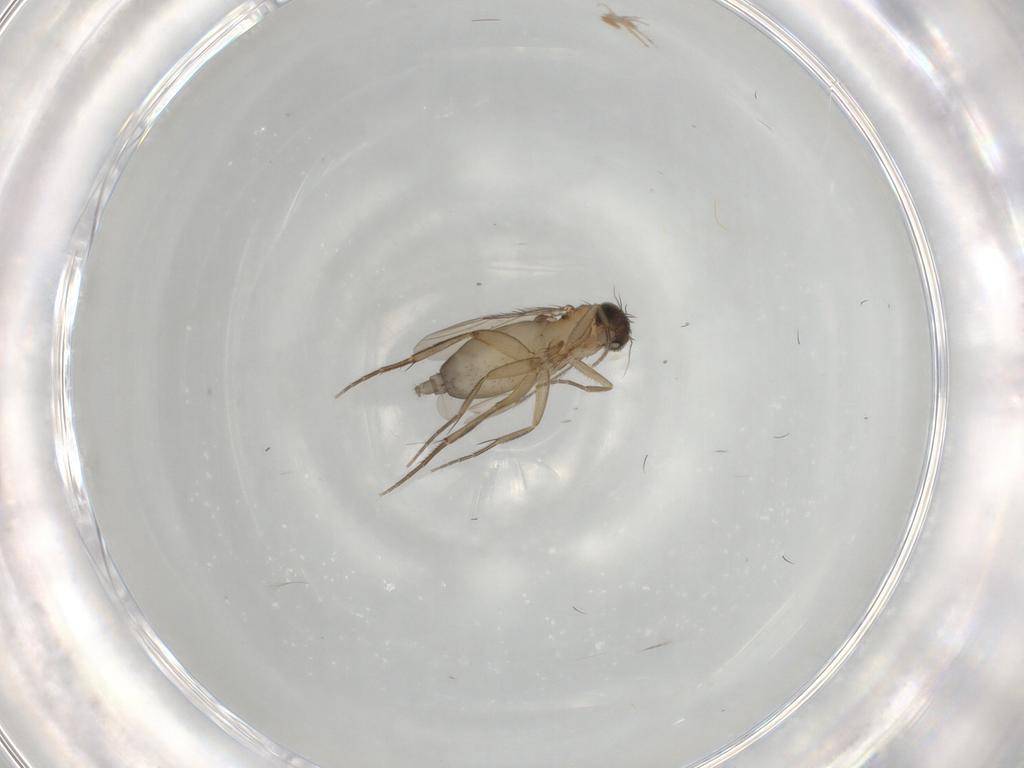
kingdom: Animalia
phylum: Arthropoda
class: Insecta
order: Diptera
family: Phoridae
